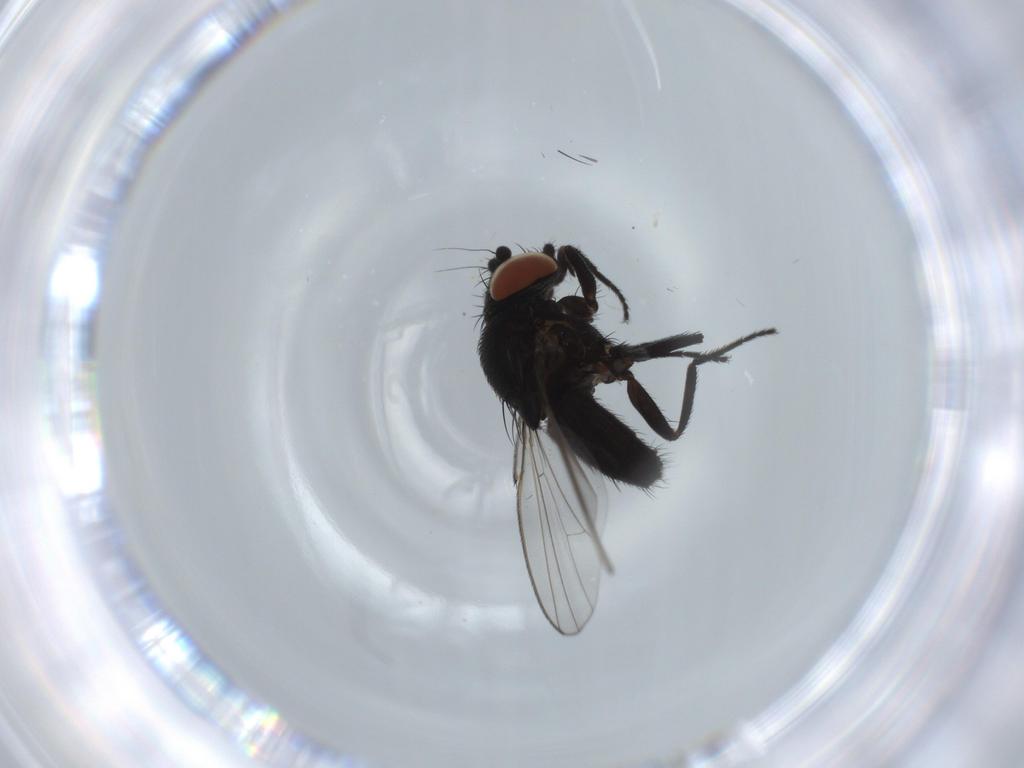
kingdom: Animalia
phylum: Arthropoda
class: Insecta
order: Diptera
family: Milichiidae
